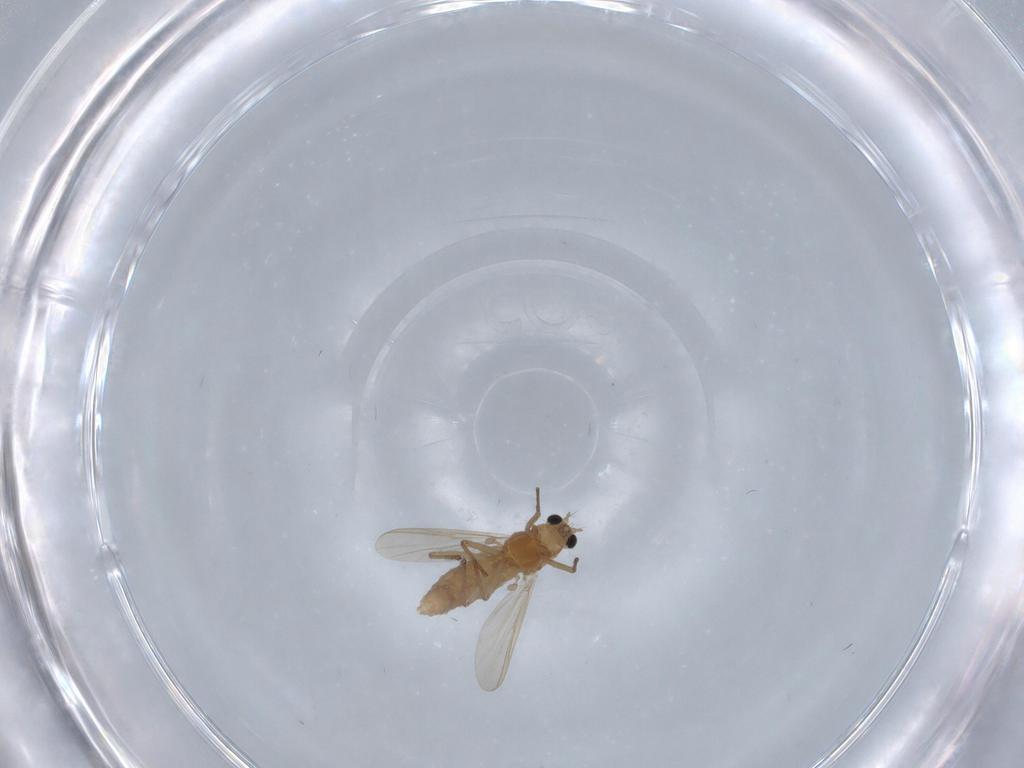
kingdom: Animalia
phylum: Arthropoda
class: Insecta
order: Diptera
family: Chironomidae
